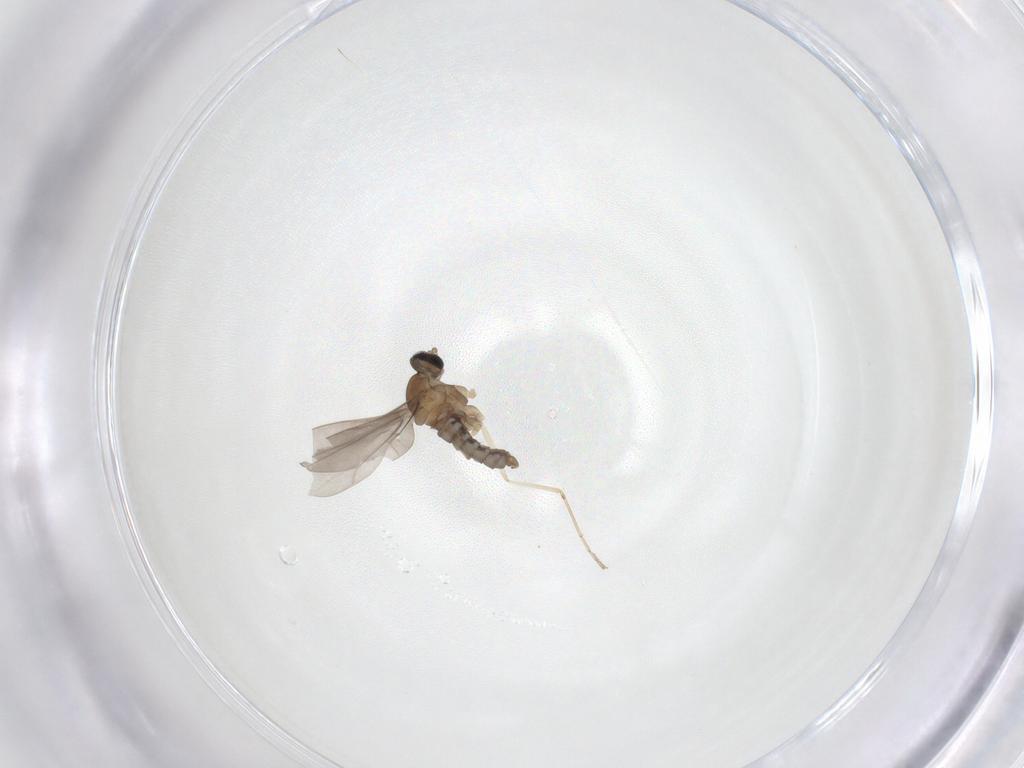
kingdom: Animalia
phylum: Arthropoda
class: Insecta
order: Diptera
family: Cecidomyiidae
